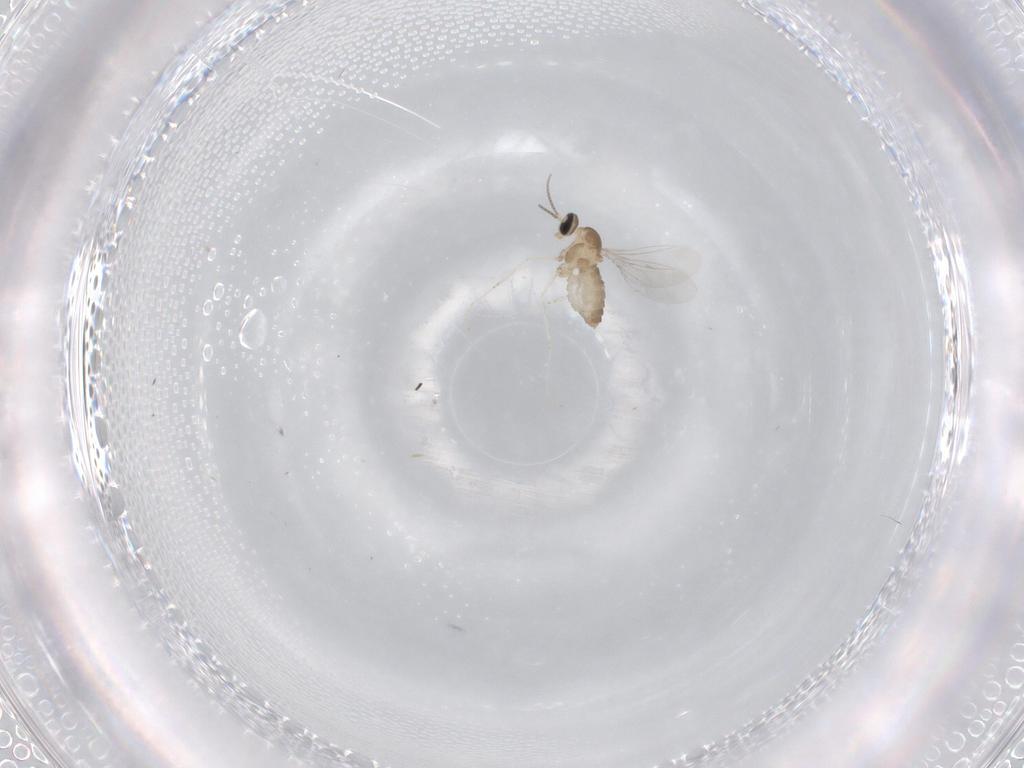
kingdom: Animalia
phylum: Arthropoda
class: Insecta
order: Diptera
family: Cecidomyiidae
